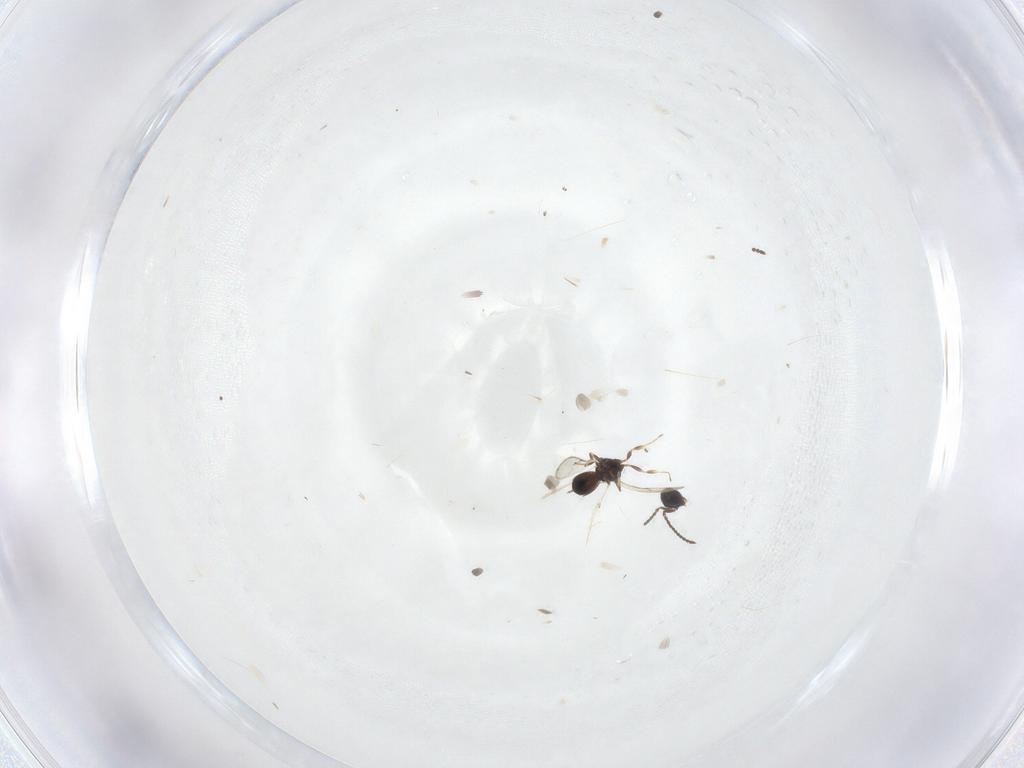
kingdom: Animalia
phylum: Arthropoda
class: Insecta
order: Hymenoptera
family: Scelionidae
